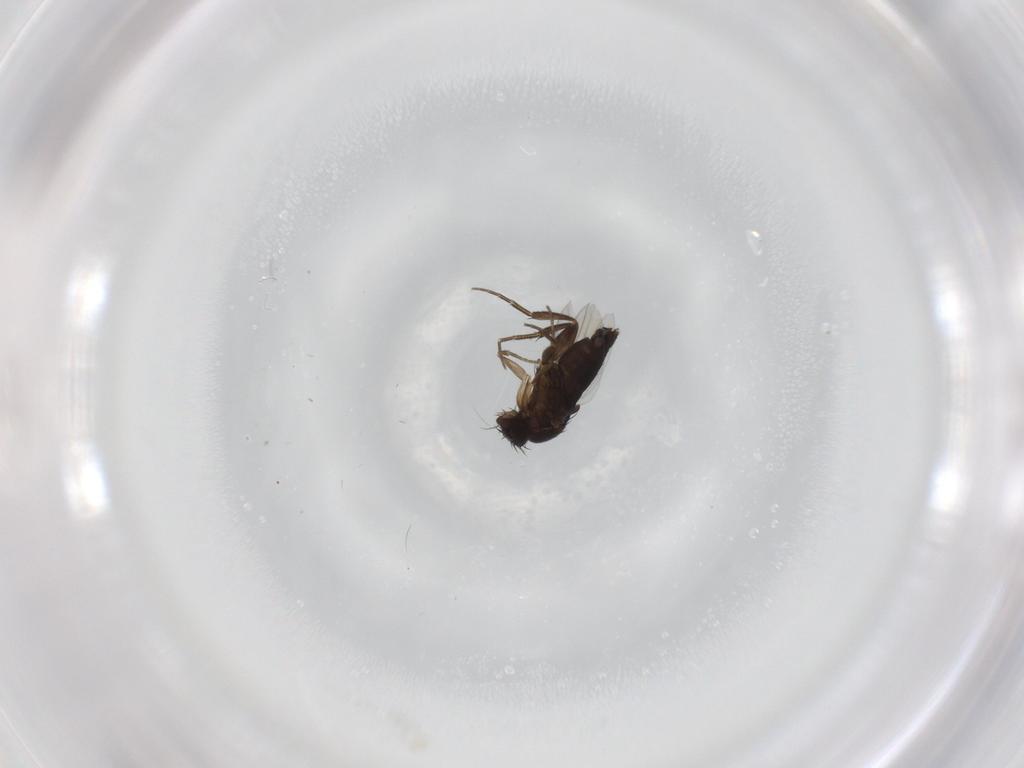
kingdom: Animalia
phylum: Arthropoda
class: Insecta
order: Diptera
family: Phoridae
